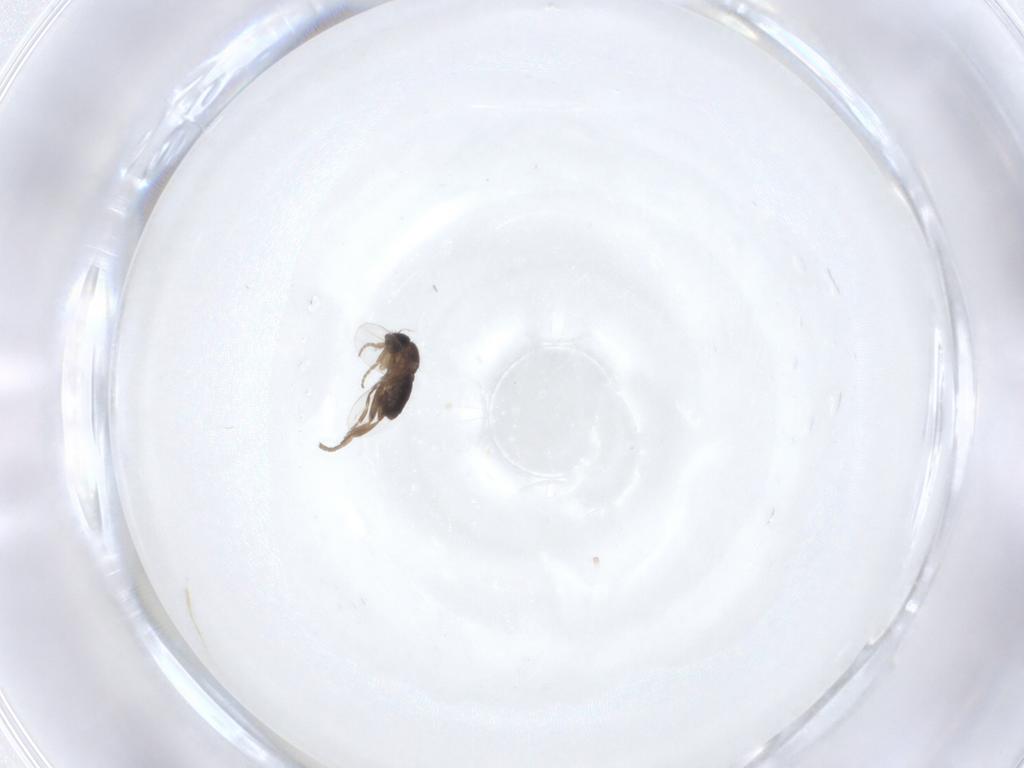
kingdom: Animalia
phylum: Arthropoda
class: Insecta
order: Diptera
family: Phoridae
